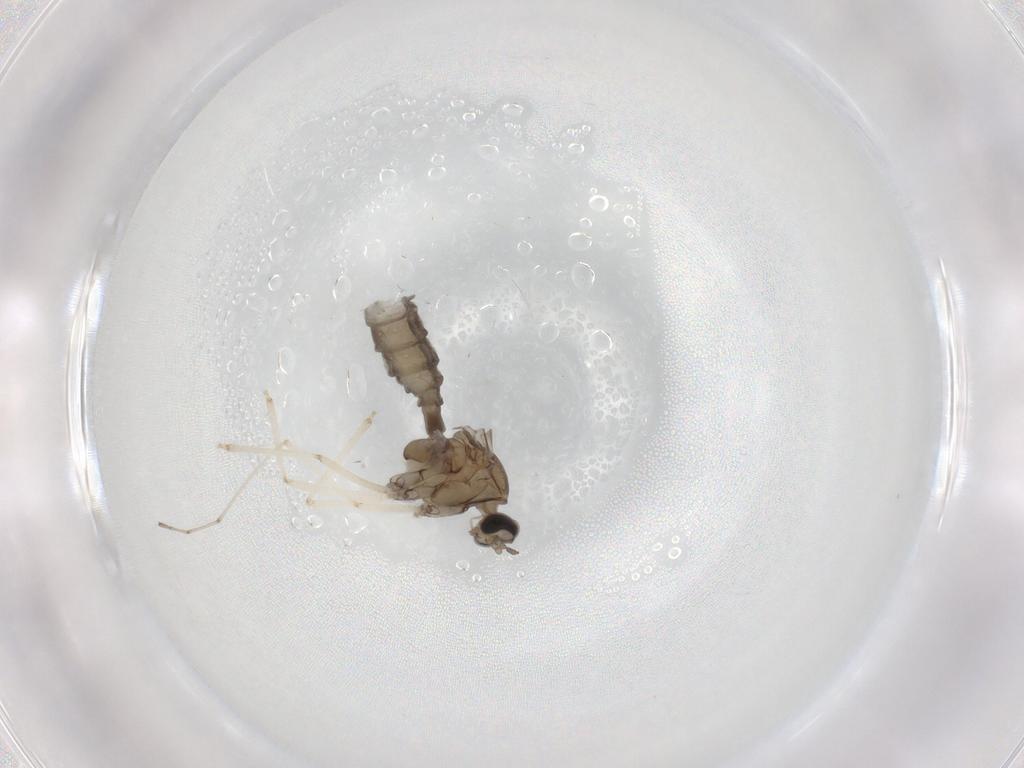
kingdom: Animalia
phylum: Arthropoda
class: Insecta
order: Diptera
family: Cecidomyiidae
